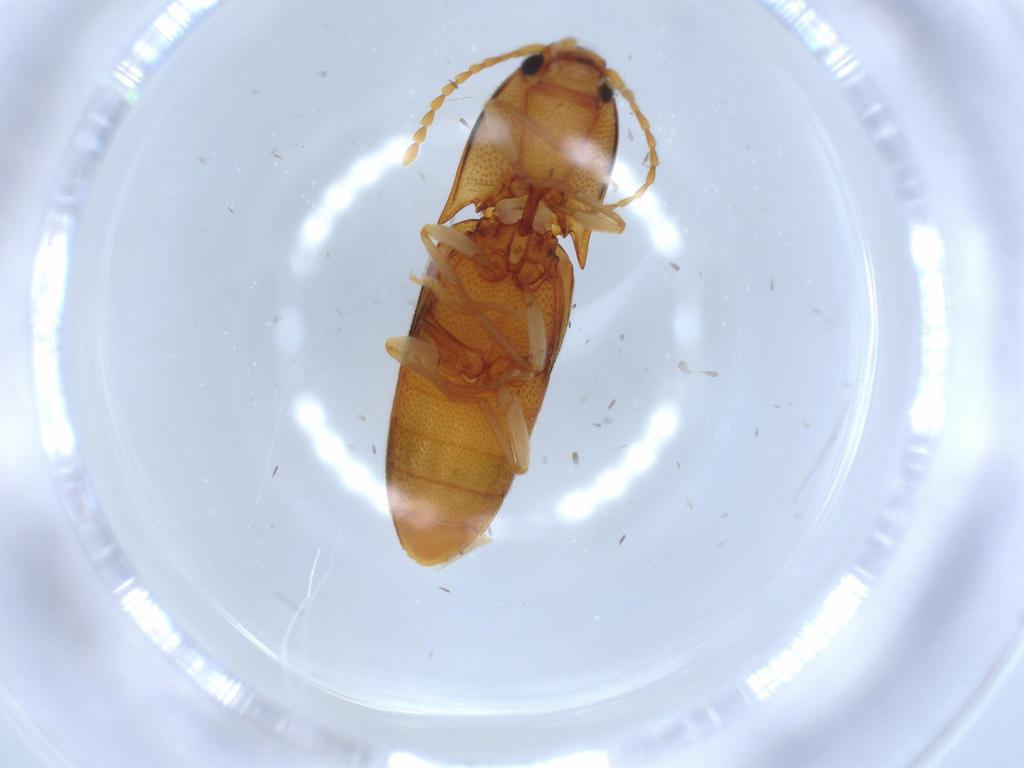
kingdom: Animalia
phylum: Arthropoda
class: Insecta
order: Coleoptera
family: Elateridae
